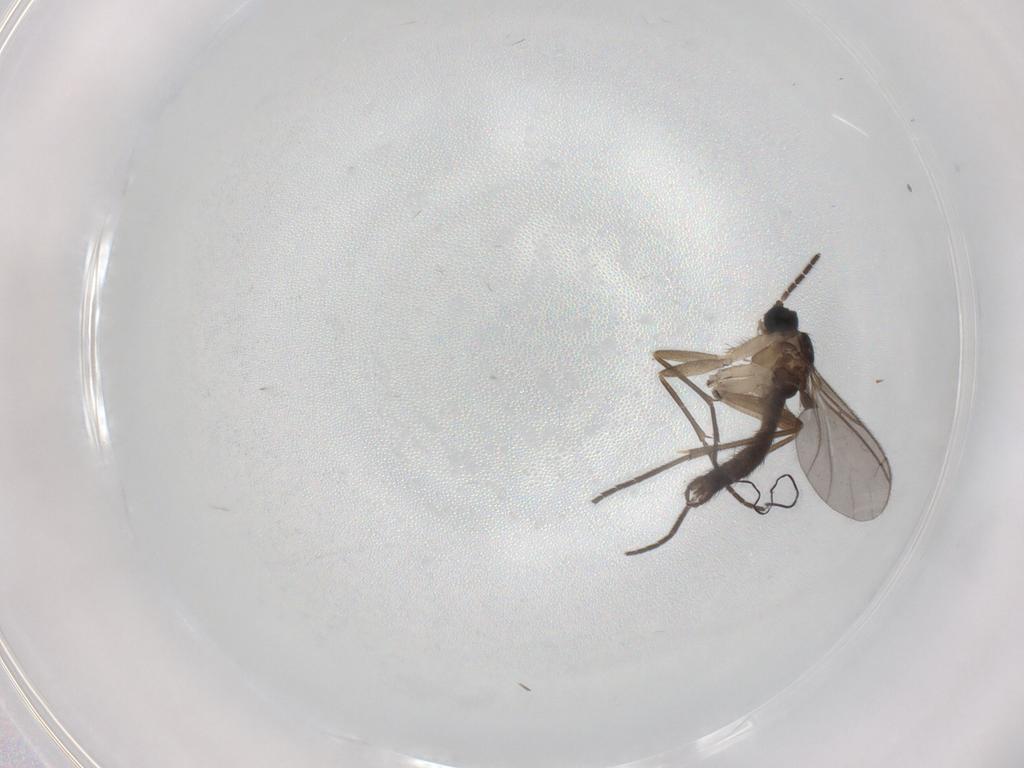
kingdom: Animalia
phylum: Arthropoda
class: Insecta
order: Diptera
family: Sciaridae
